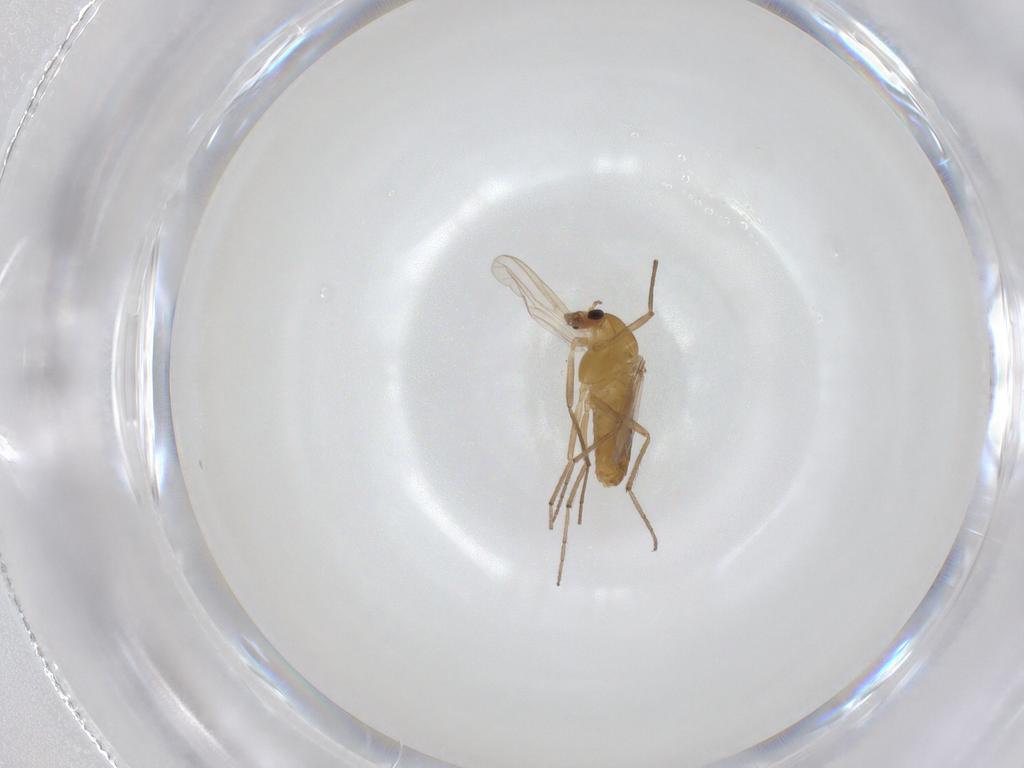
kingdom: Animalia
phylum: Arthropoda
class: Insecta
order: Diptera
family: Chironomidae
